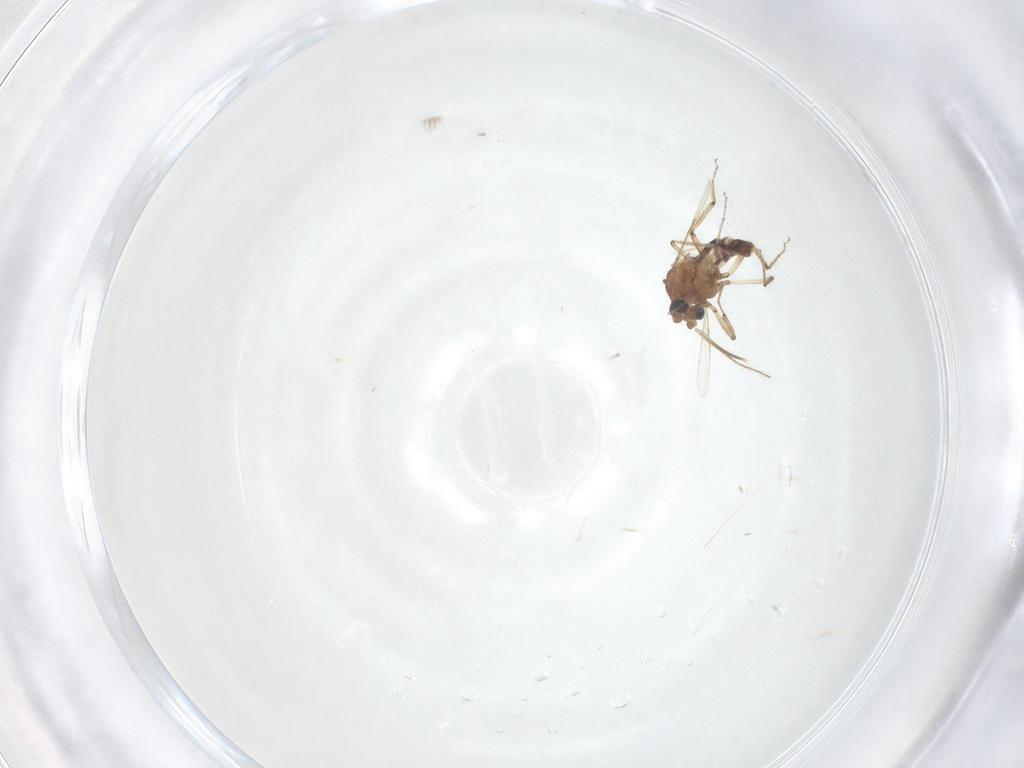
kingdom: Animalia
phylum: Arthropoda
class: Insecta
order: Diptera
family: Ceratopogonidae
